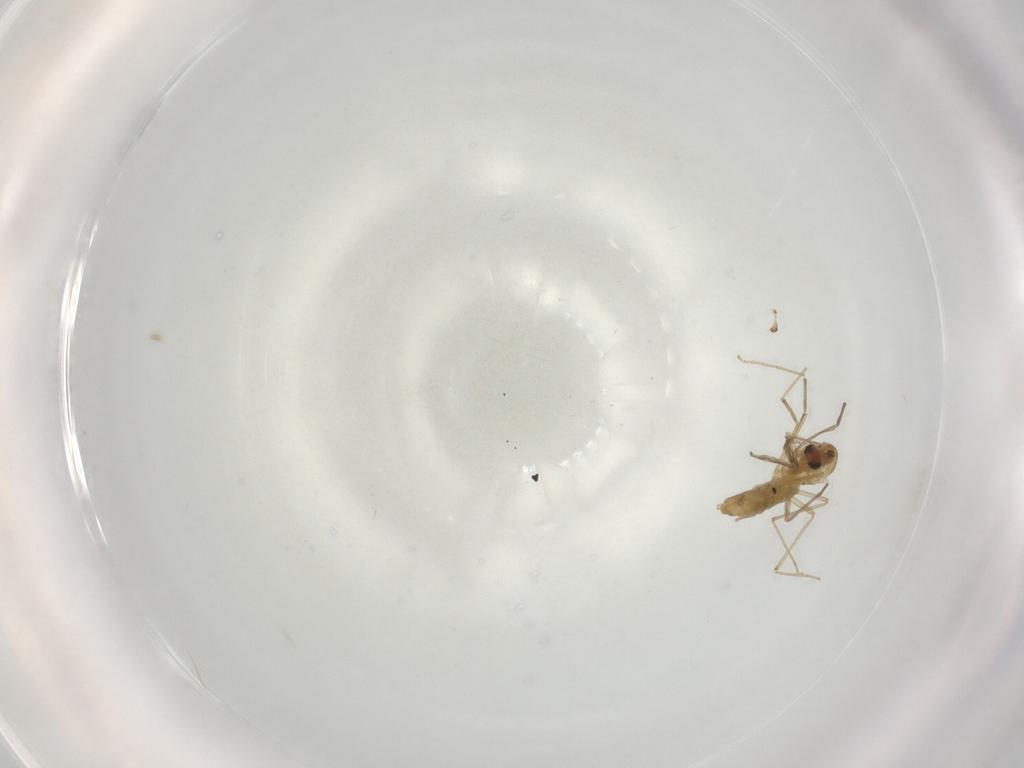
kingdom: Animalia
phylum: Arthropoda
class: Insecta
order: Diptera
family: Chironomidae
